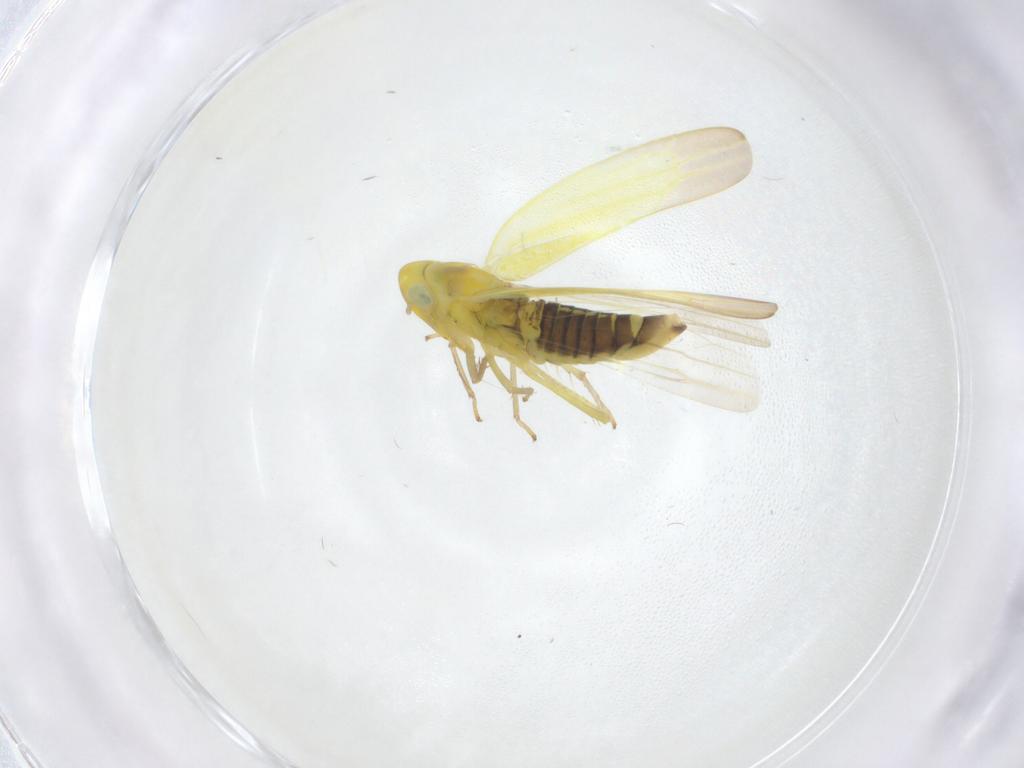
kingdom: Animalia
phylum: Arthropoda
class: Insecta
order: Hemiptera
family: Cicadellidae
